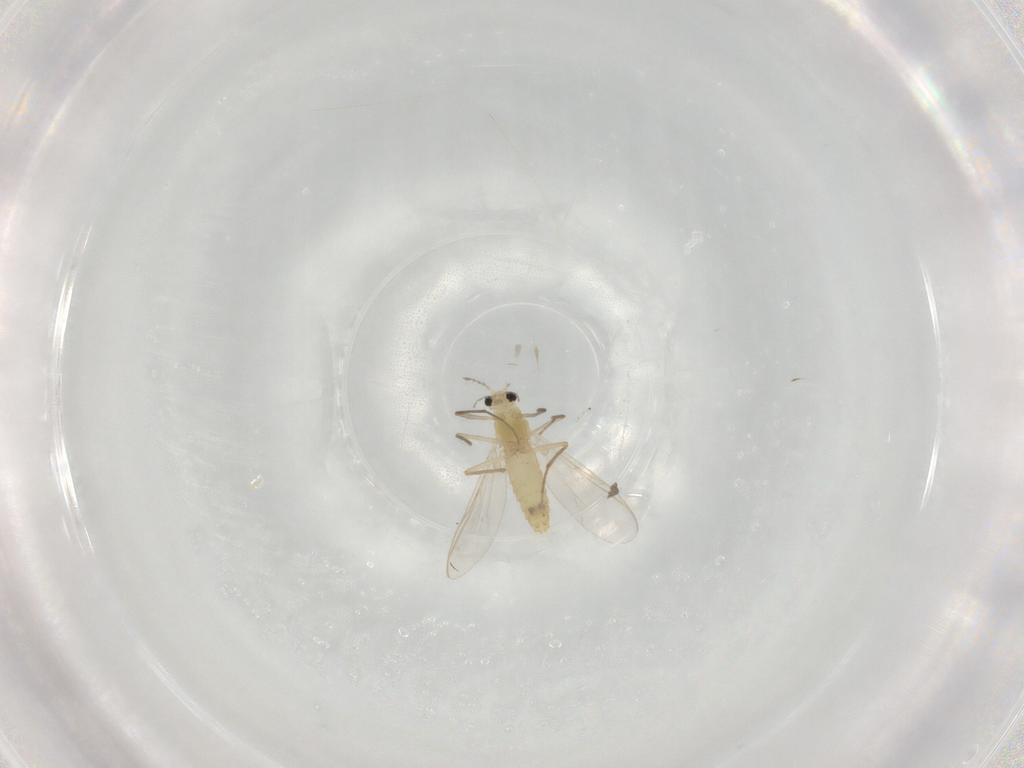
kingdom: Animalia
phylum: Arthropoda
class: Insecta
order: Diptera
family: Chironomidae
